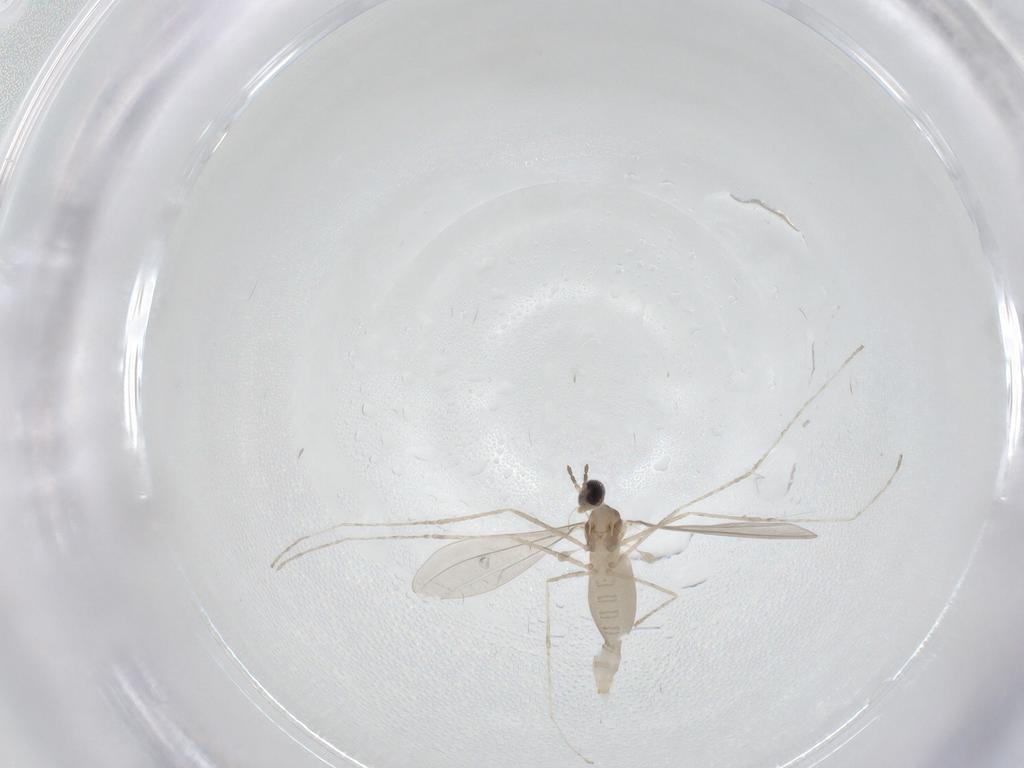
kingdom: Animalia
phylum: Arthropoda
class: Insecta
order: Diptera
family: Cecidomyiidae
